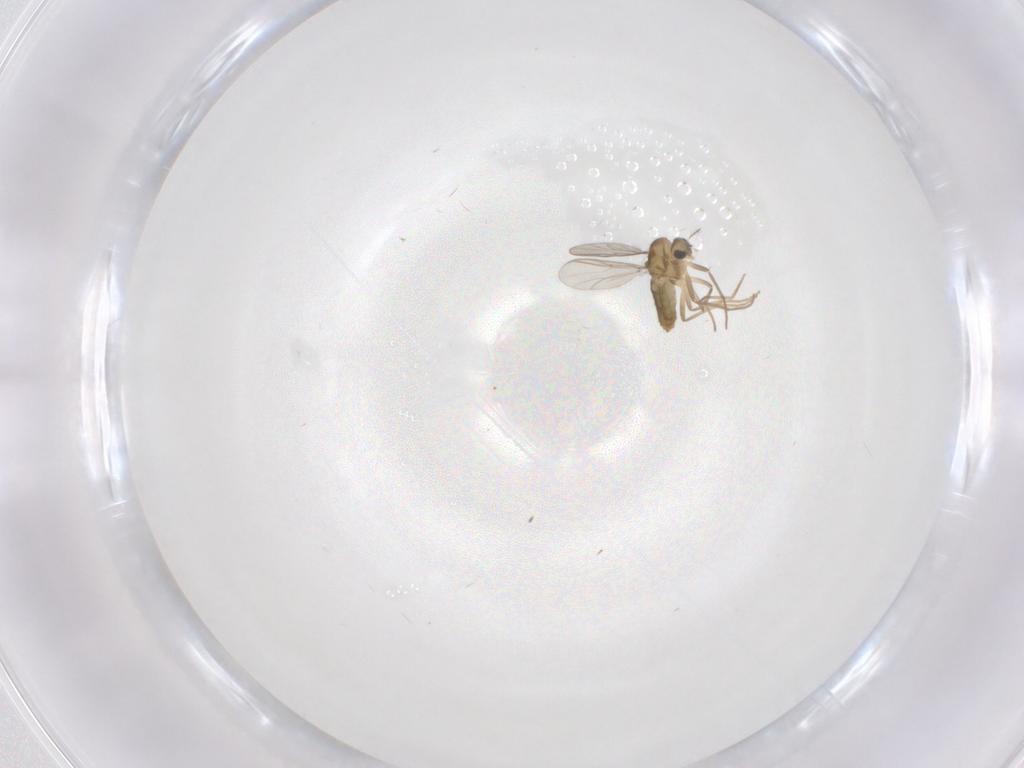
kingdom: Animalia
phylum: Arthropoda
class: Insecta
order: Diptera
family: Chironomidae
